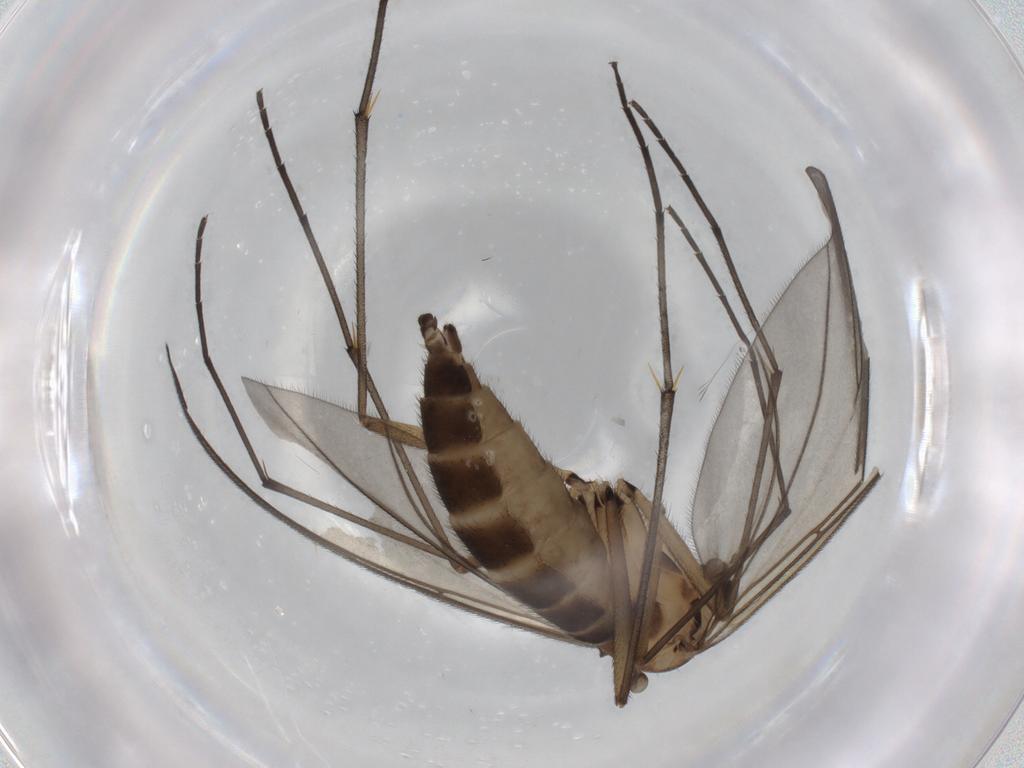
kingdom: Animalia
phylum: Arthropoda
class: Insecta
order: Diptera
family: Sciaridae
